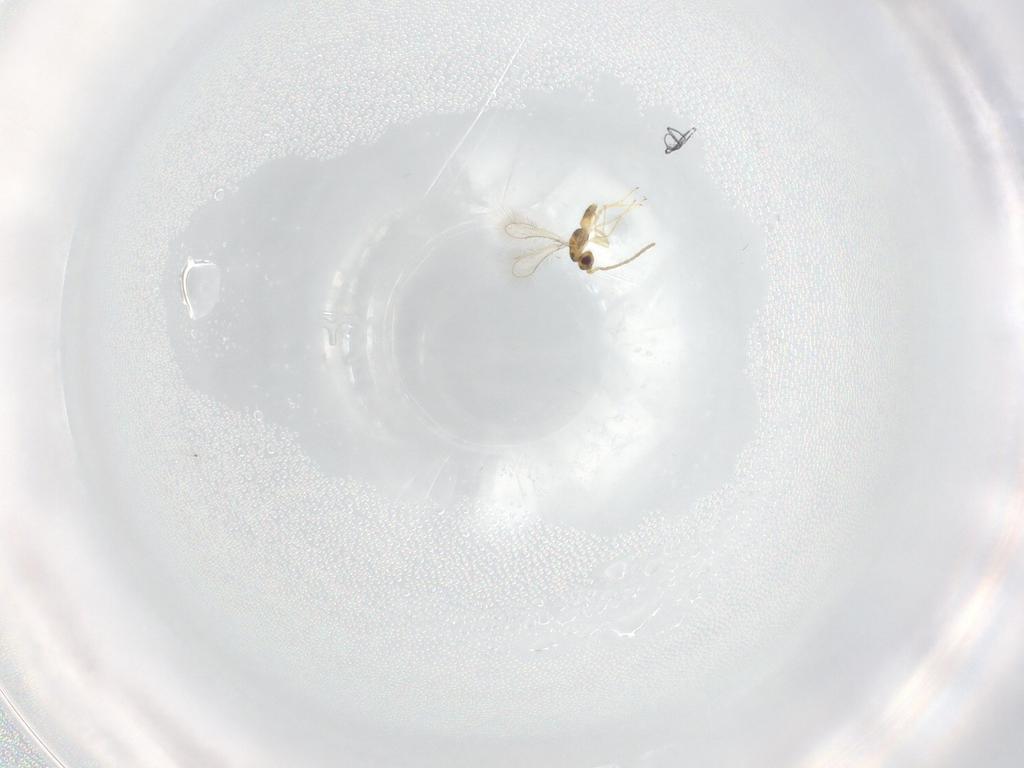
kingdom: Animalia
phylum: Arthropoda
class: Insecta
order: Hymenoptera
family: Mymaridae
